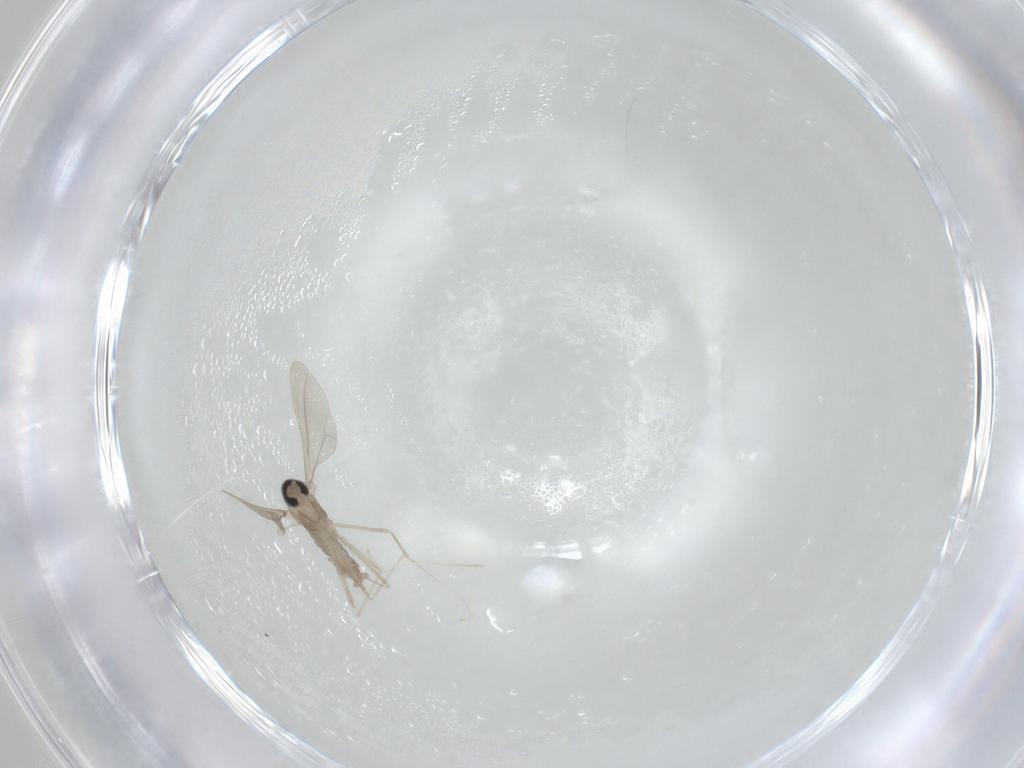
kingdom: Animalia
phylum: Arthropoda
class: Insecta
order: Diptera
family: Cecidomyiidae
